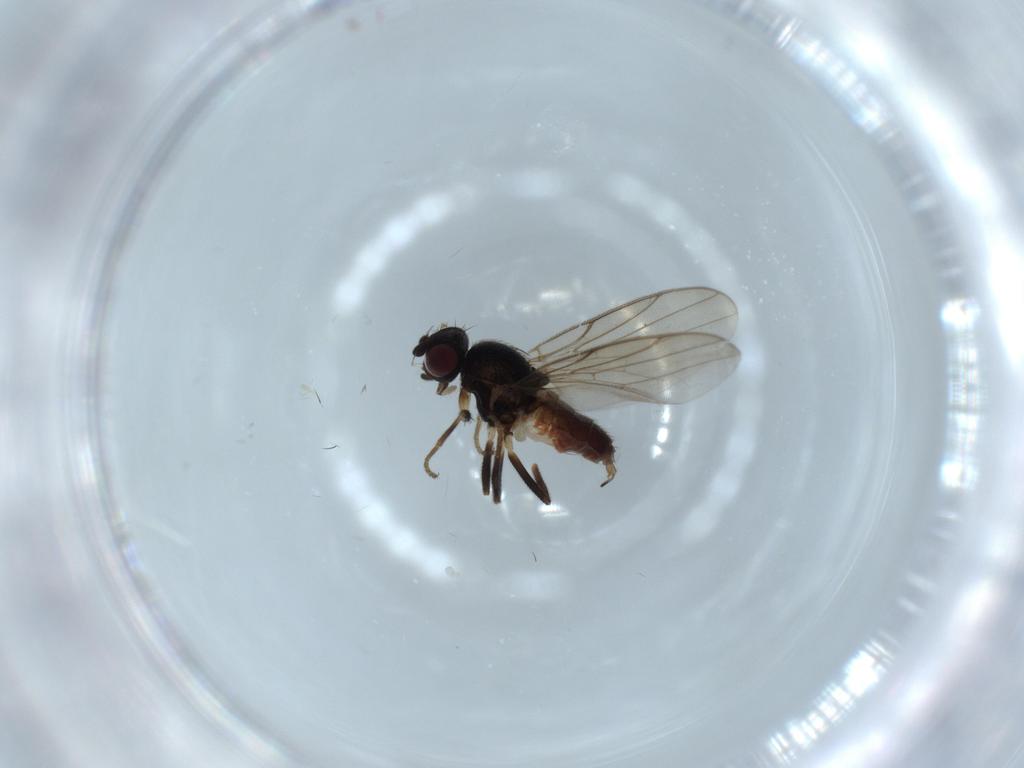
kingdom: Animalia
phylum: Arthropoda
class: Insecta
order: Diptera
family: Chloropidae
